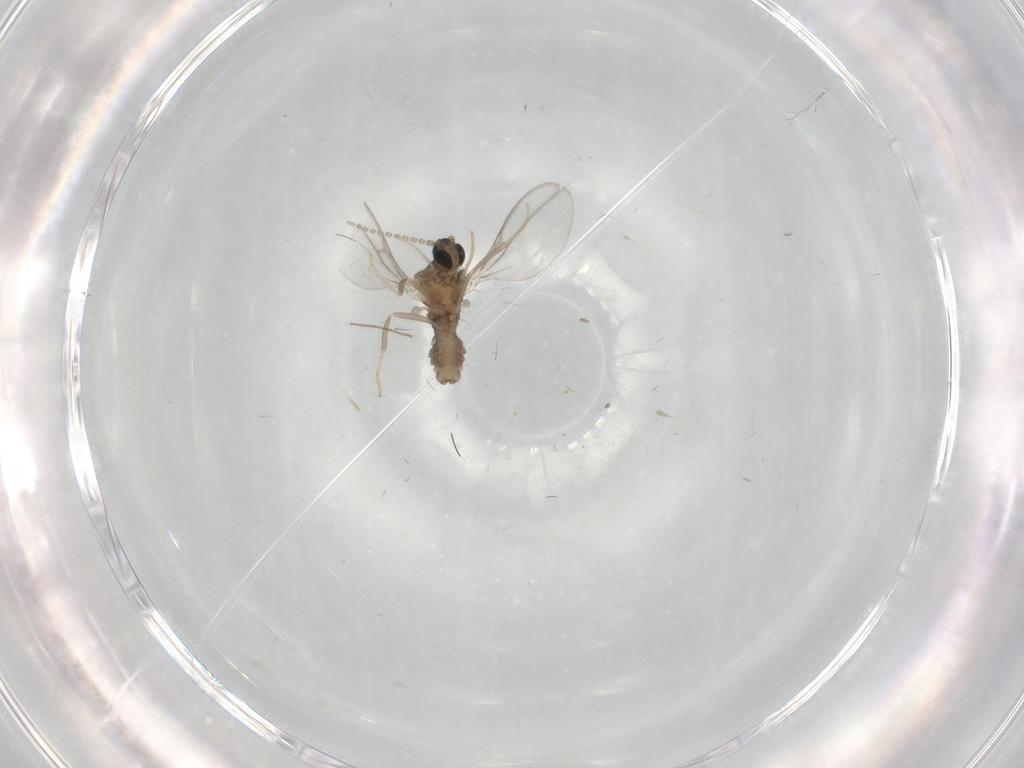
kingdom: Animalia
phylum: Arthropoda
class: Insecta
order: Diptera
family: Cecidomyiidae
